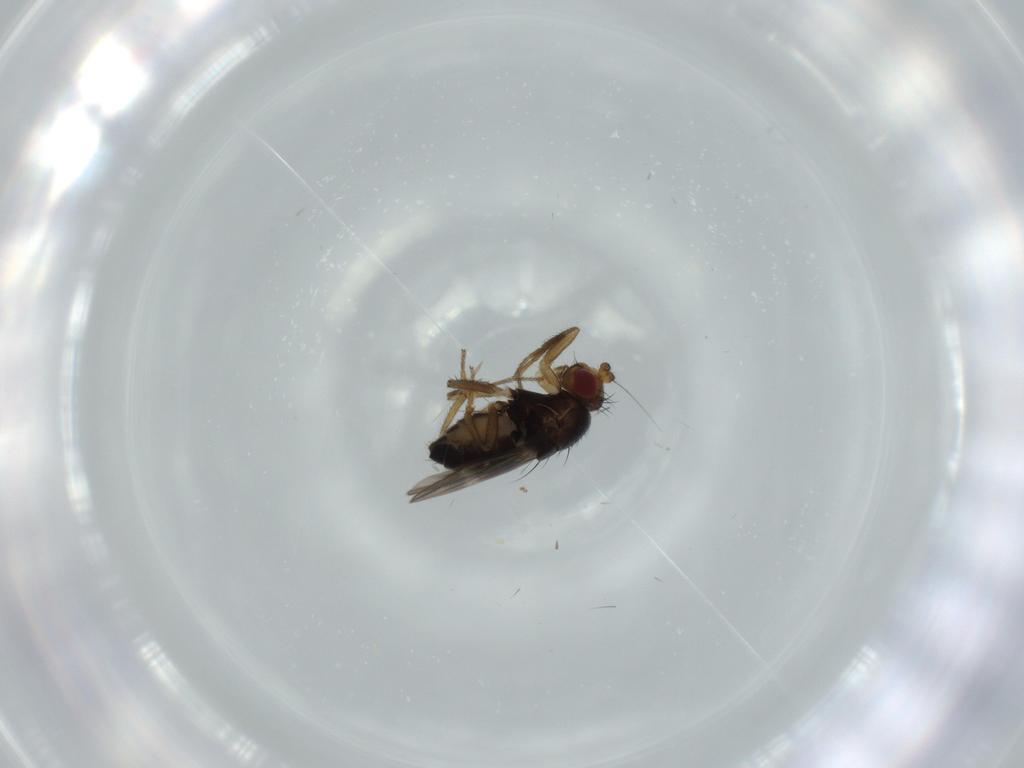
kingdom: Animalia
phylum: Arthropoda
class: Insecta
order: Diptera
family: Sphaeroceridae
